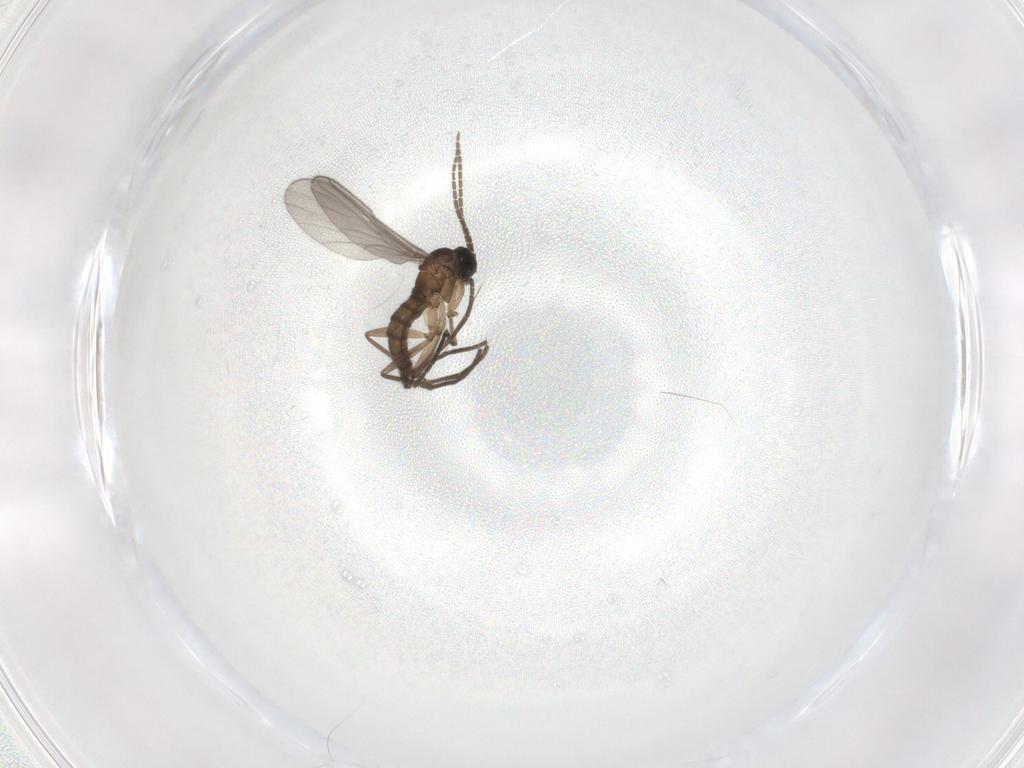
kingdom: Animalia
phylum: Arthropoda
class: Insecta
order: Diptera
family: Sciaridae
